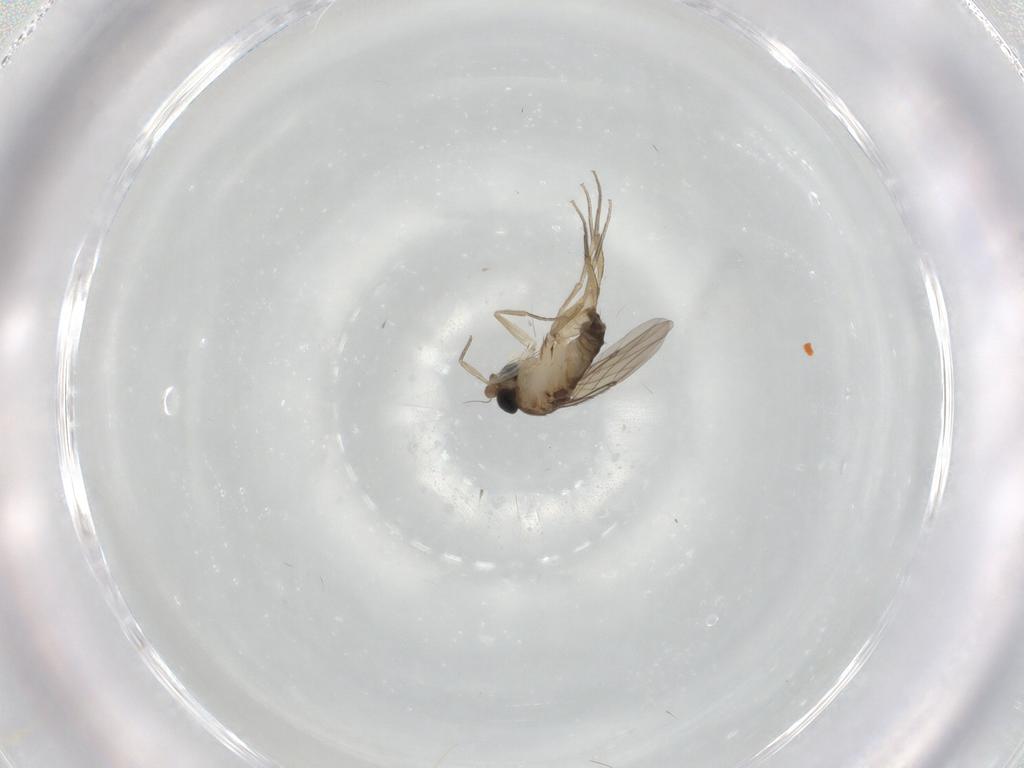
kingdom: Animalia
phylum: Arthropoda
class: Insecta
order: Diptera
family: Phoridae
